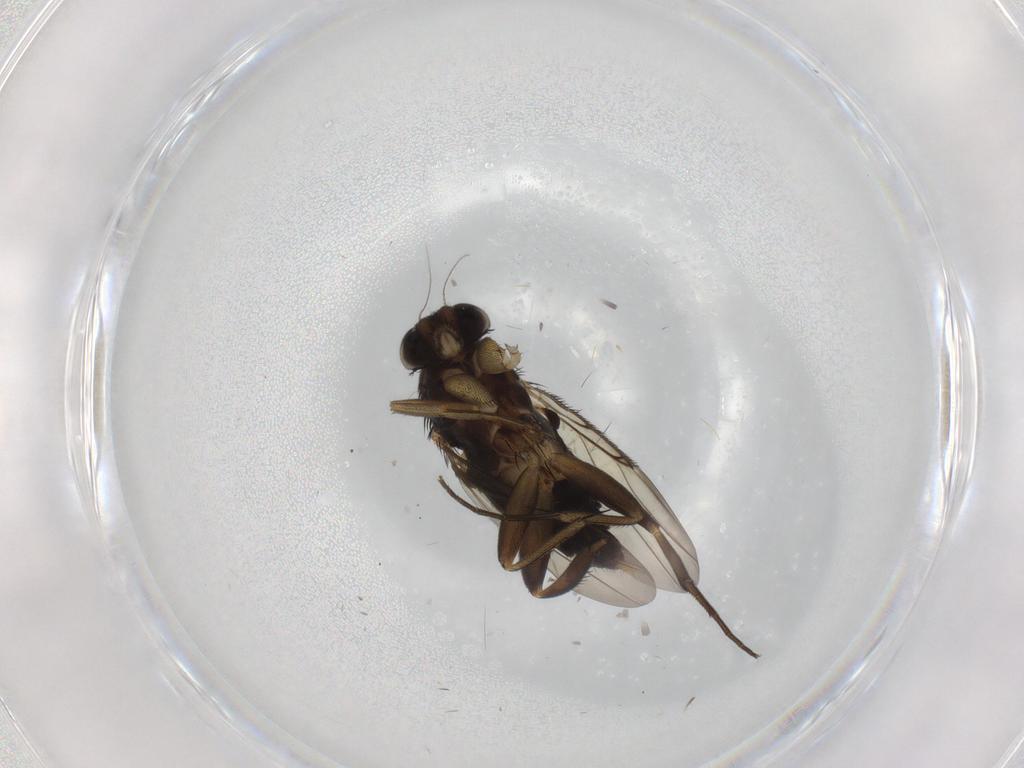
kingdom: Animalia
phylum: Arthropoda
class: Insecta
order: Diptera
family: Phoridae
